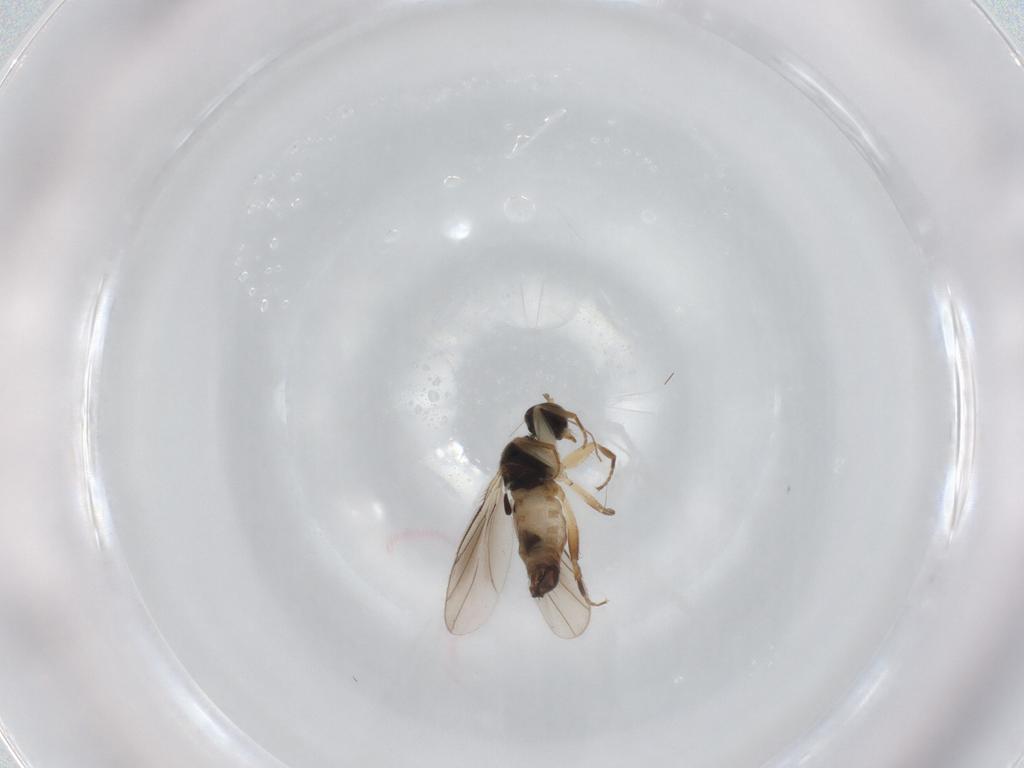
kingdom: Animalia
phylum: Arthropoda
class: Insecta
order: Diptera
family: Hybotidae
